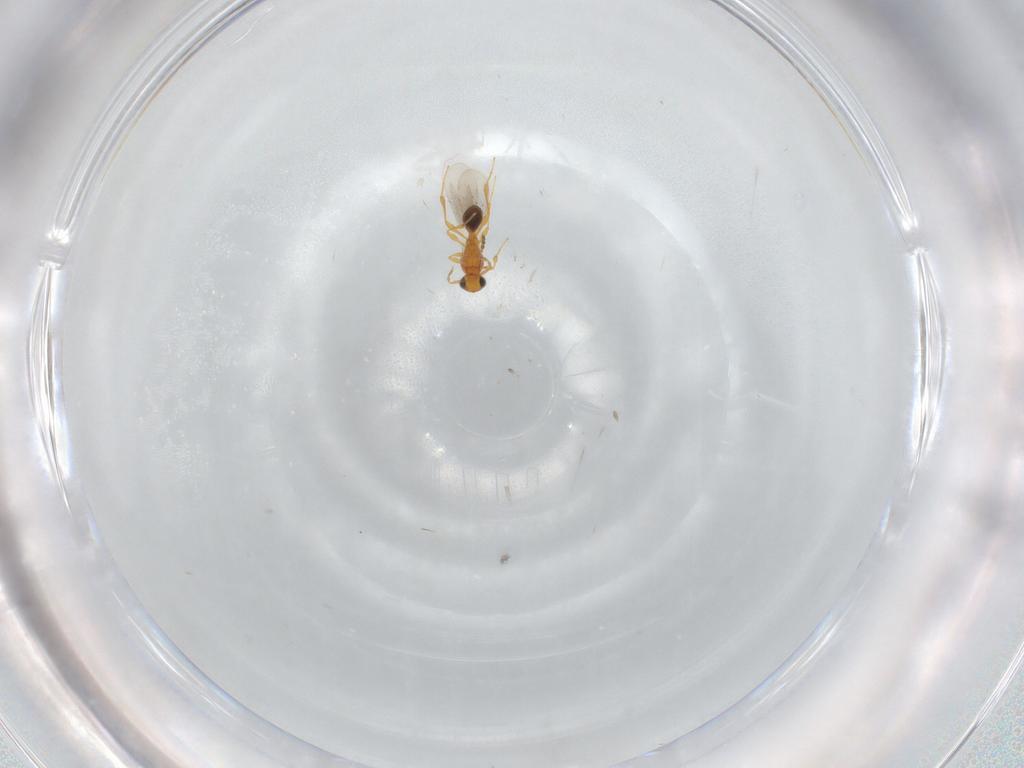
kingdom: Animalia
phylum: Arthropoda
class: Insecta
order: Hymenoptera
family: Platygastridae
